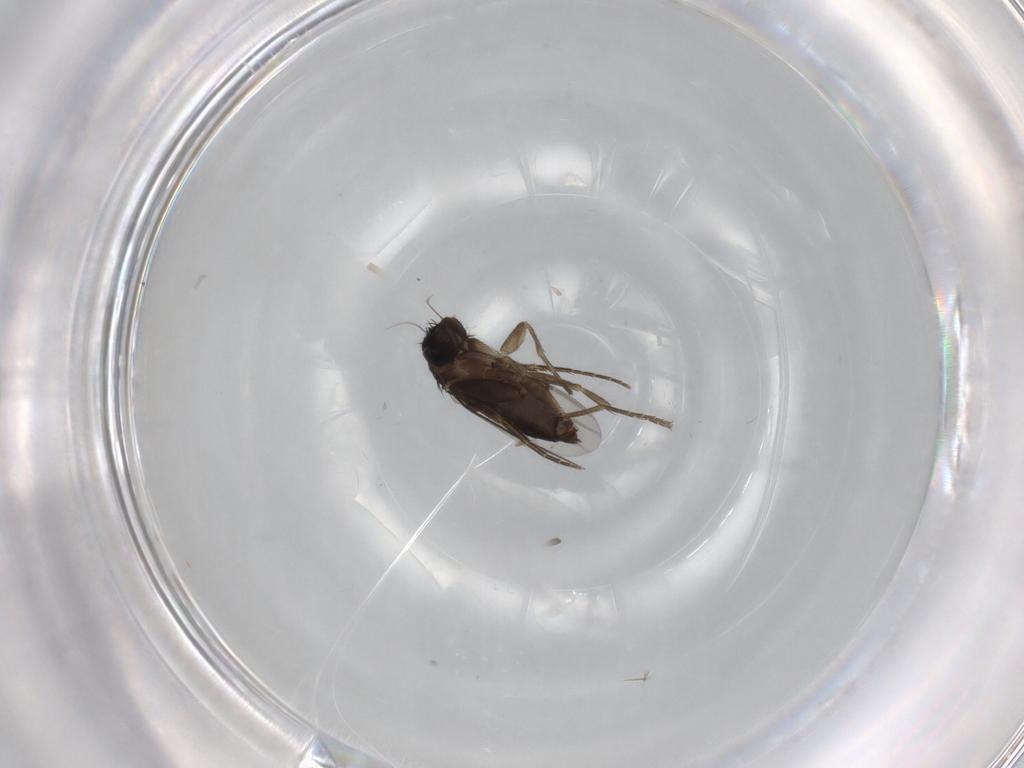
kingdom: Animalia
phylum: Arthropoda
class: Insecta
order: Diptera
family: Phoridae
